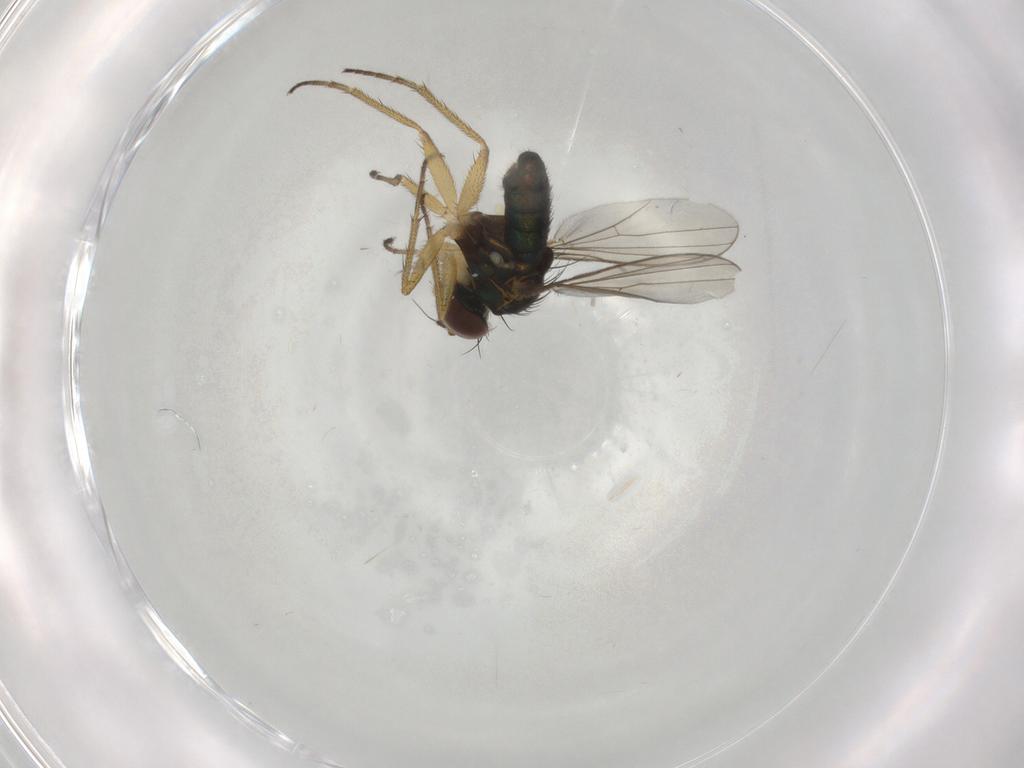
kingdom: Animalia
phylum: Arthropoda
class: Insecta
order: Diptera
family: Dolichopodidae
